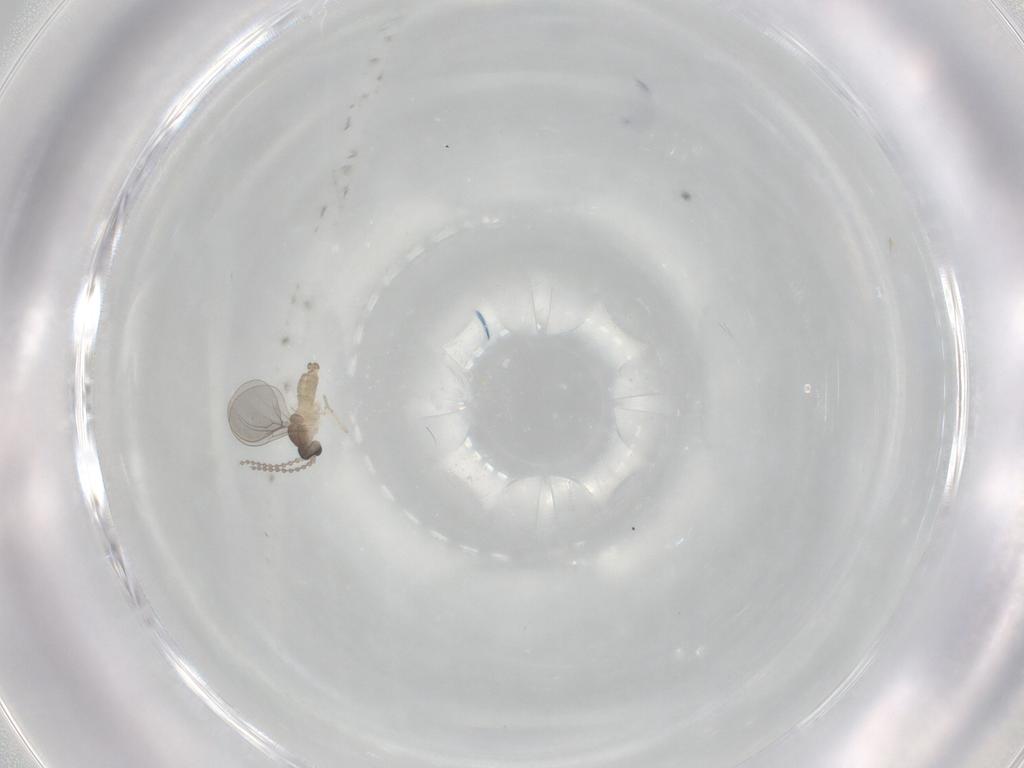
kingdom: Animalia
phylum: Arthropoda
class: Insecta
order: Diptera
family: Cecidomyiidae
